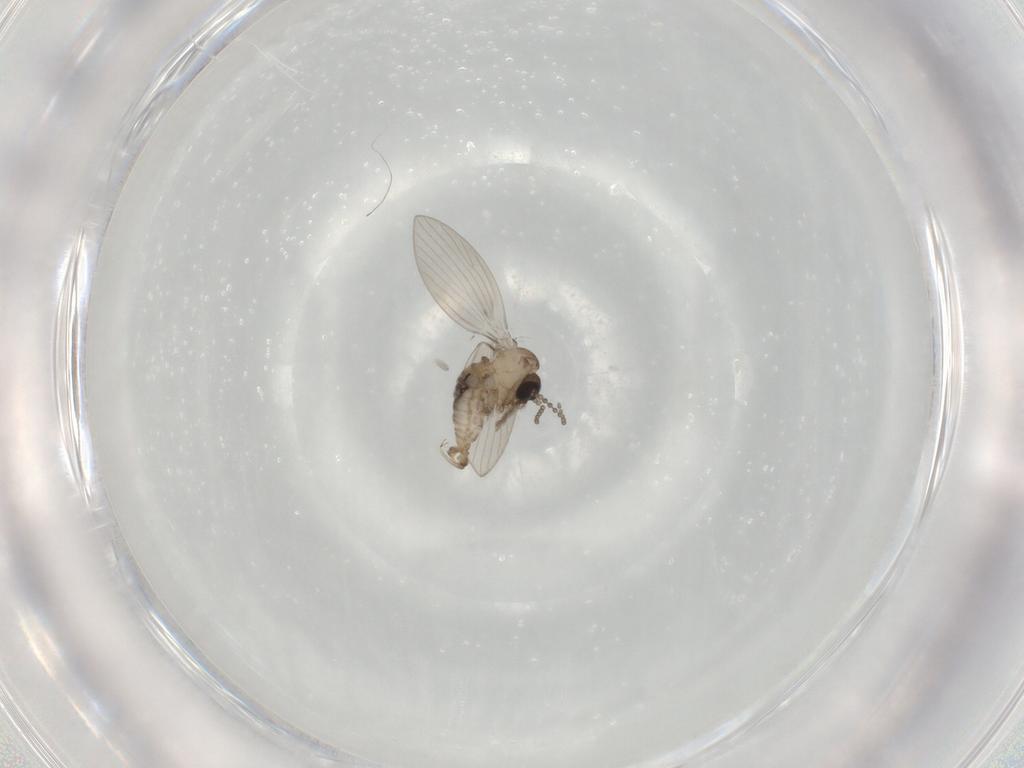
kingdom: Animalia
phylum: Arthropoda
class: Insecta
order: Diptera
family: Psychodidae
